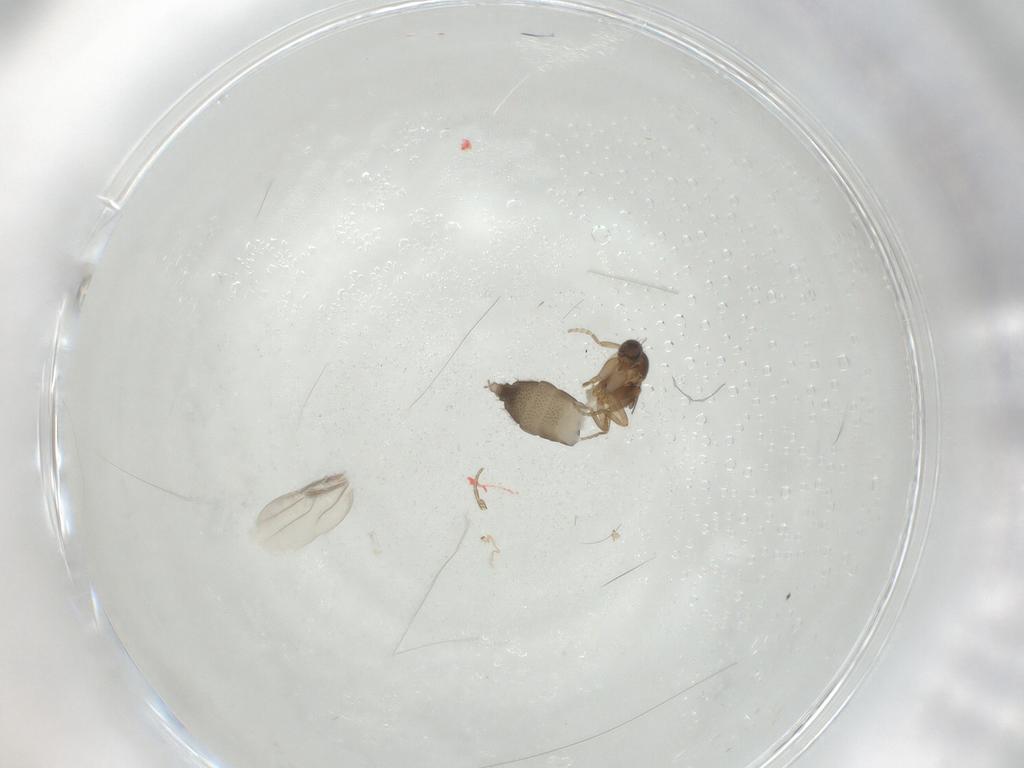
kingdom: Animalia
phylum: Arthropoda
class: Insecta
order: Diptera
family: Phoridae
